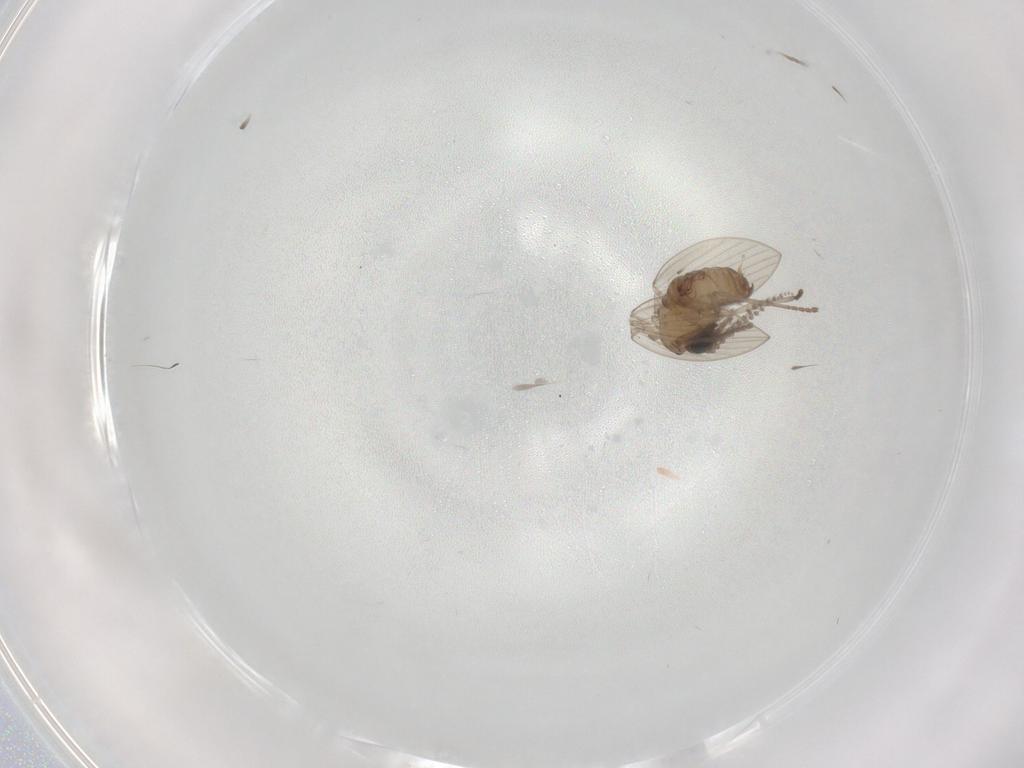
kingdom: Animalia
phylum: Arthropoda
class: Insecta
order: Diptera
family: Psychodidae
